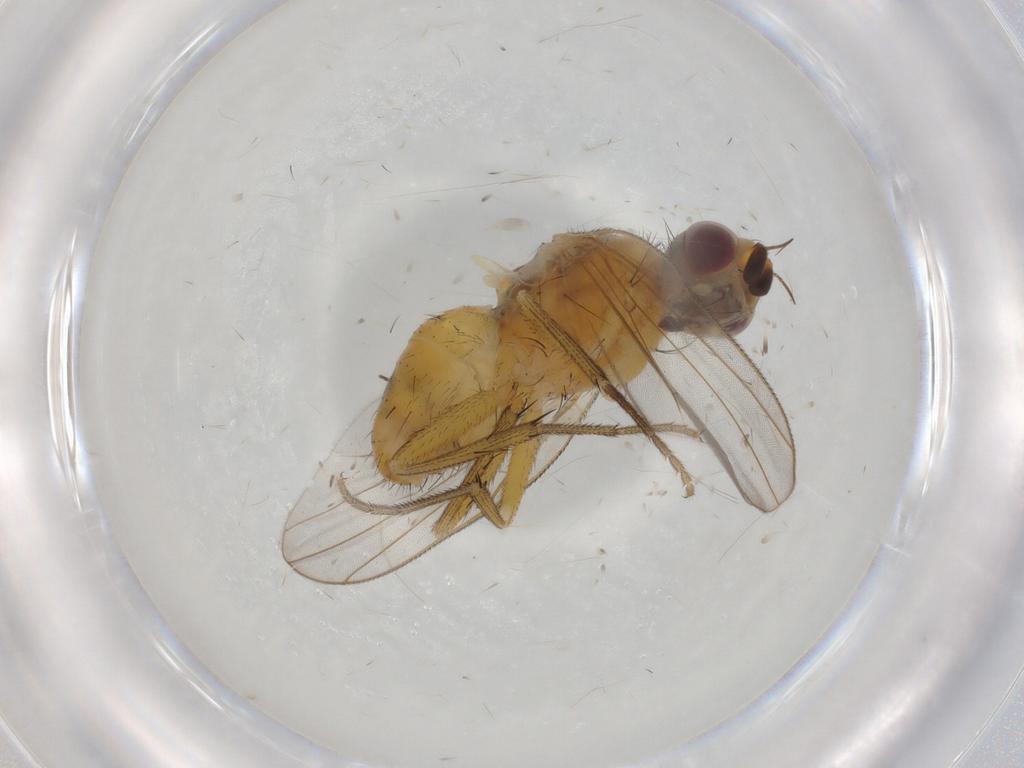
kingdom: Animalia
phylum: Arthropoda
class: Insecta
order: Diptera
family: Muscidae
